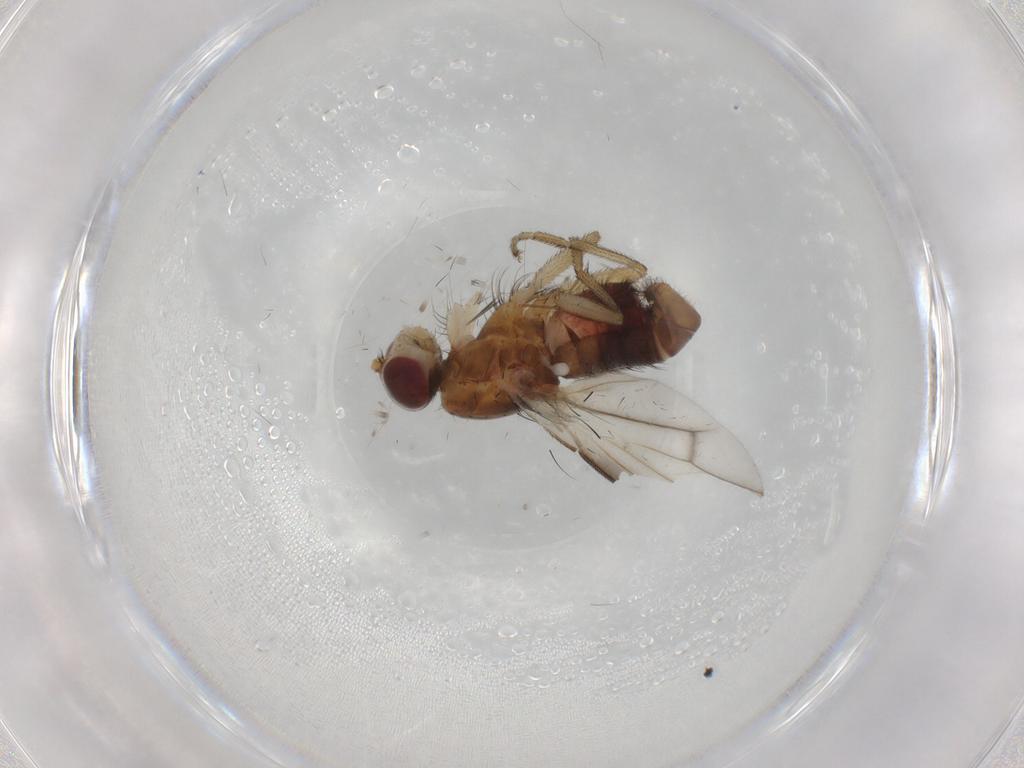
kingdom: Animalia
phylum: Arthropoda
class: Insecta
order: Diptera
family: Heleomyzidae
